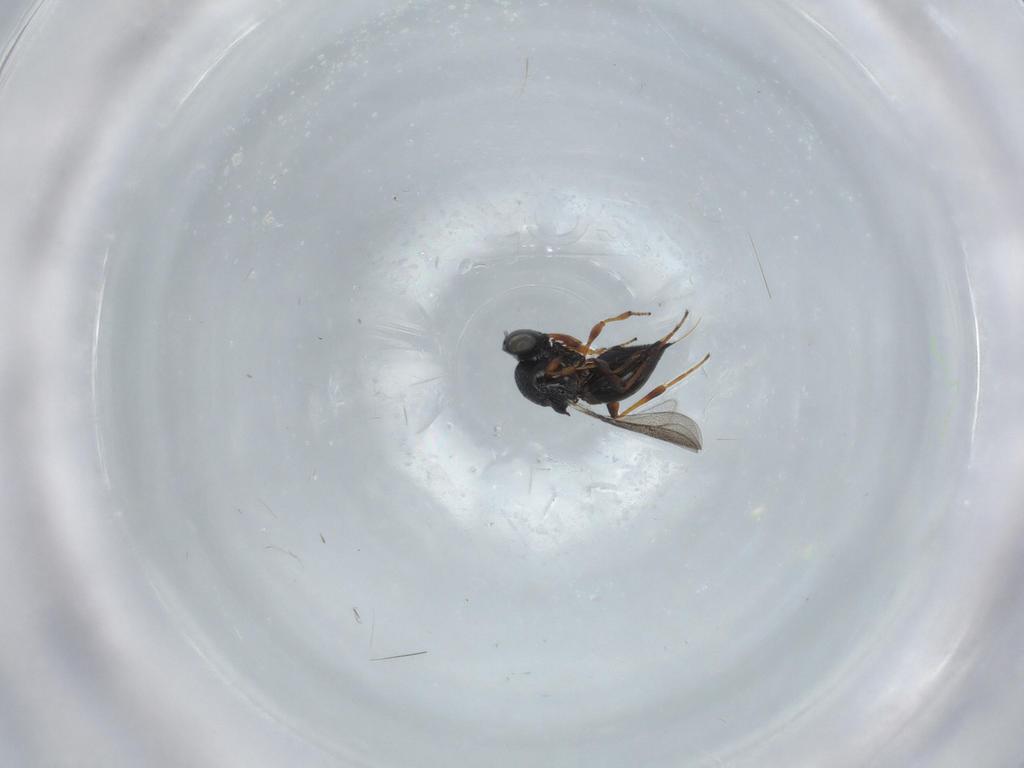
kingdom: Animalia
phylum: Arthropoda
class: Insecta
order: Hymenoptera
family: Platygastridae
